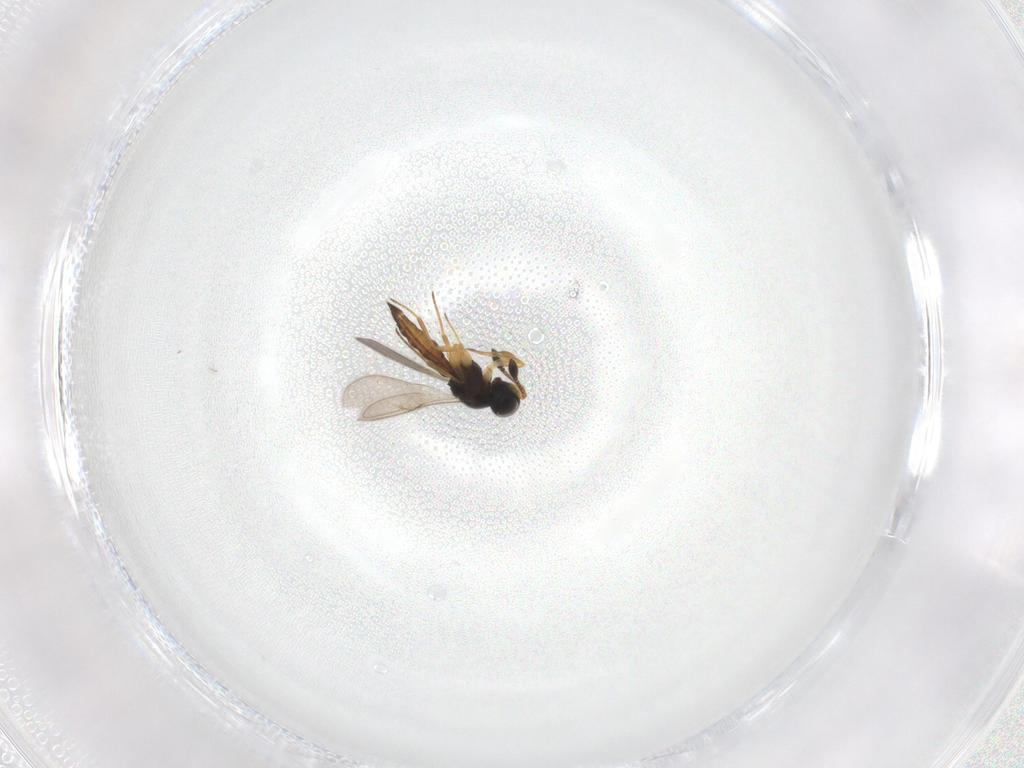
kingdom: Animalia
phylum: Arthropoda
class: Insecta
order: Hymenoptera
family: Scelionidae
